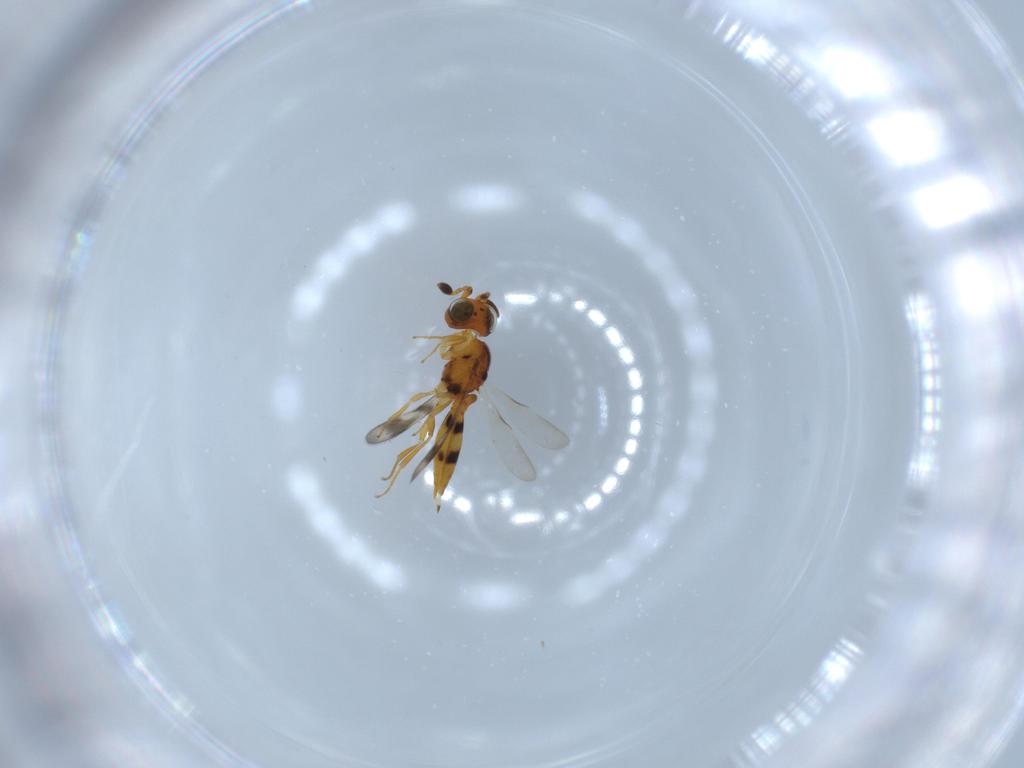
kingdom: Animalia
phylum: Arthropoda
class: Insecta
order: Hymenoptera
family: Scelionidae
